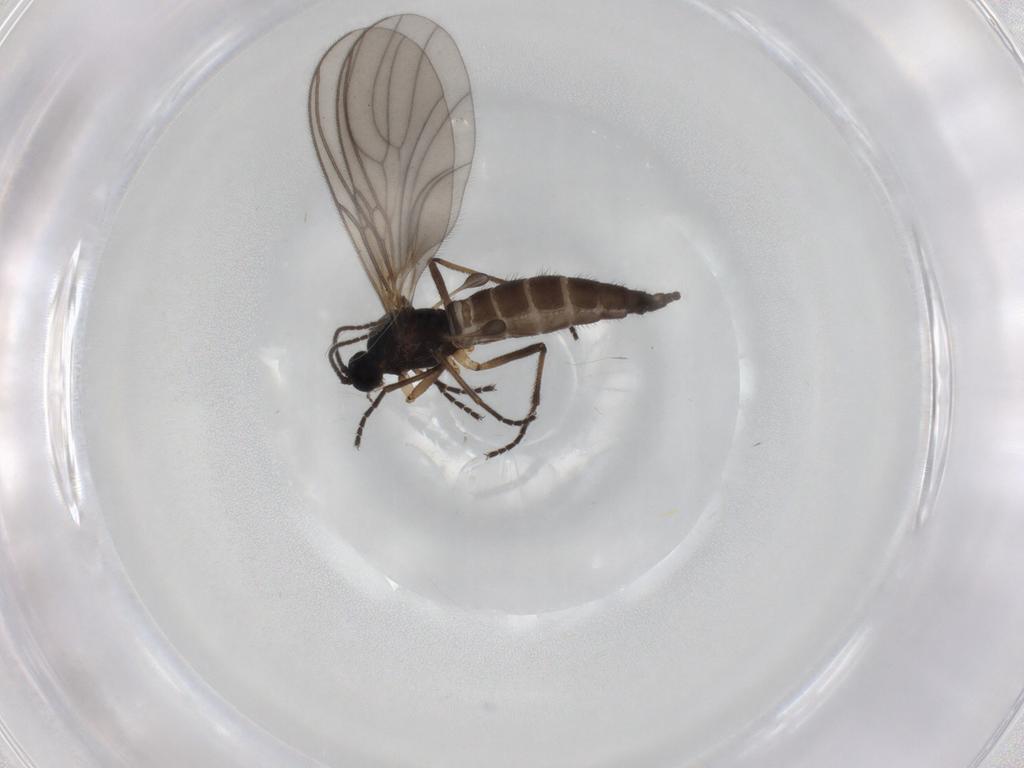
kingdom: Animalia
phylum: Arthropoda
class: Insecta
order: Diptera
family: Sciaridae
